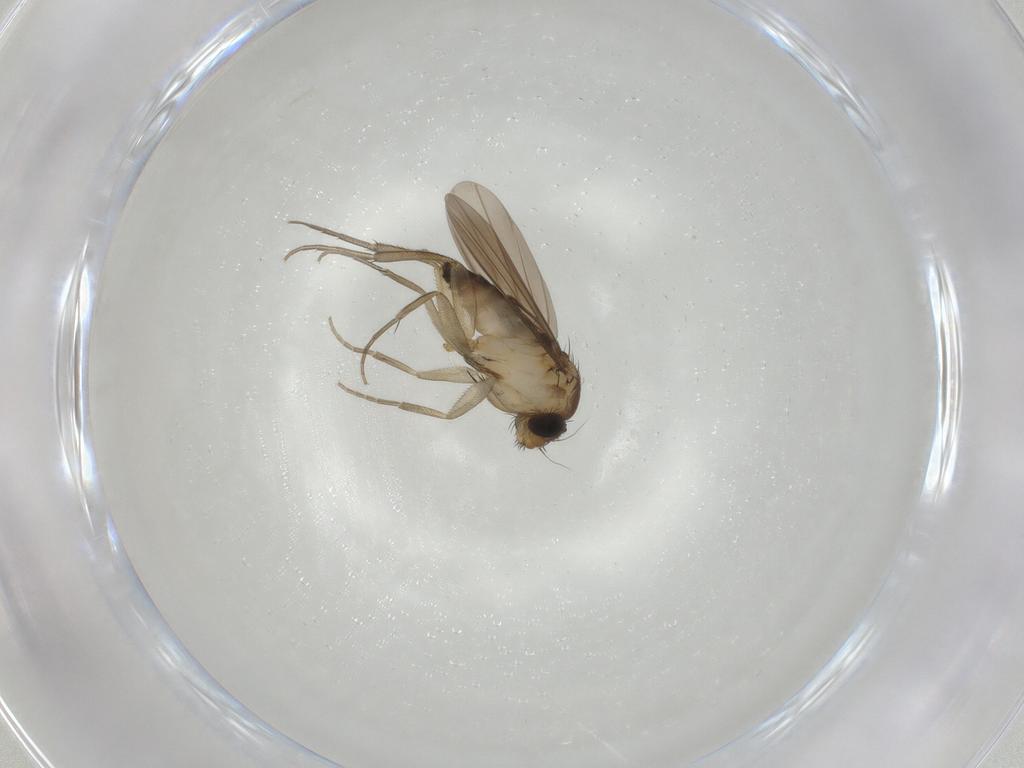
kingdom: Animalia
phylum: Arthropoda
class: Insecta
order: Diptera
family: Phoridae
